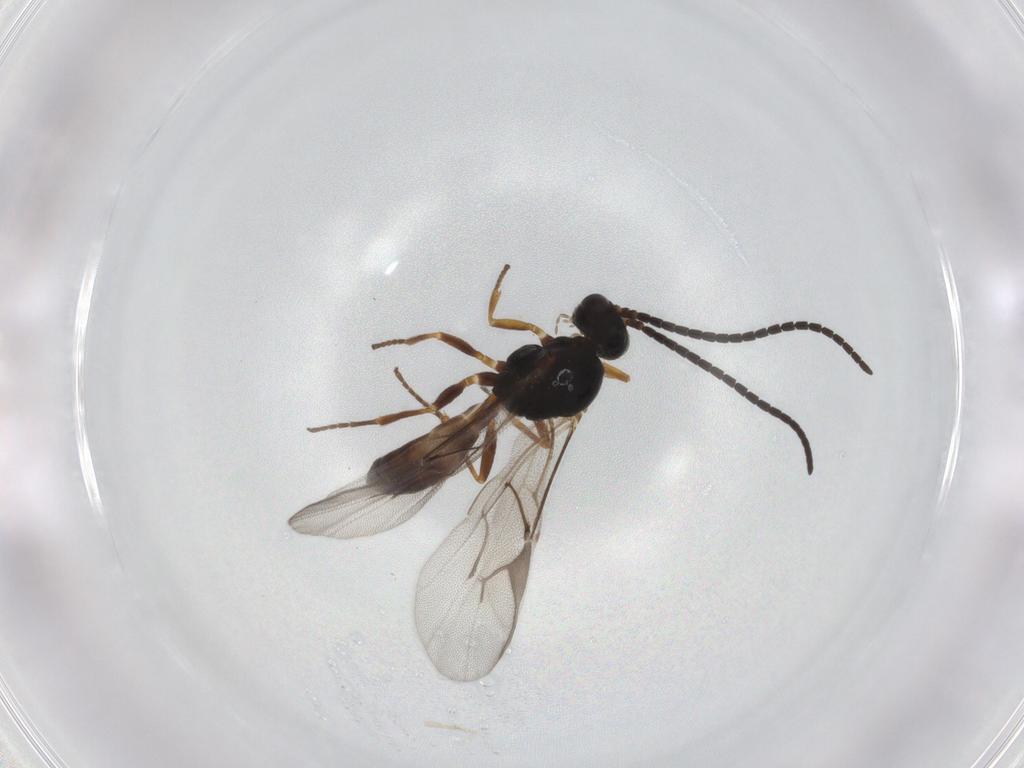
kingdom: Animalia
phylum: Arthropoda
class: Insecta
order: Hymenoptera
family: Braconidae
